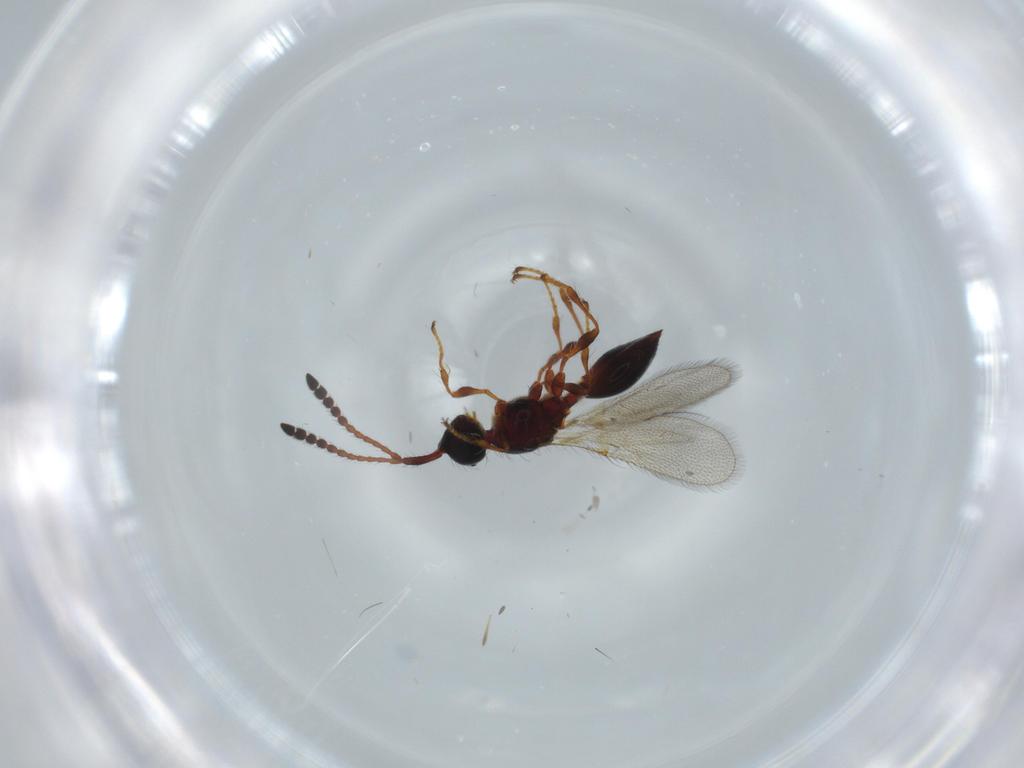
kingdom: Animalia
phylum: Arthropoda
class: Insecta
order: Hymenoptera
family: Diapriidae
